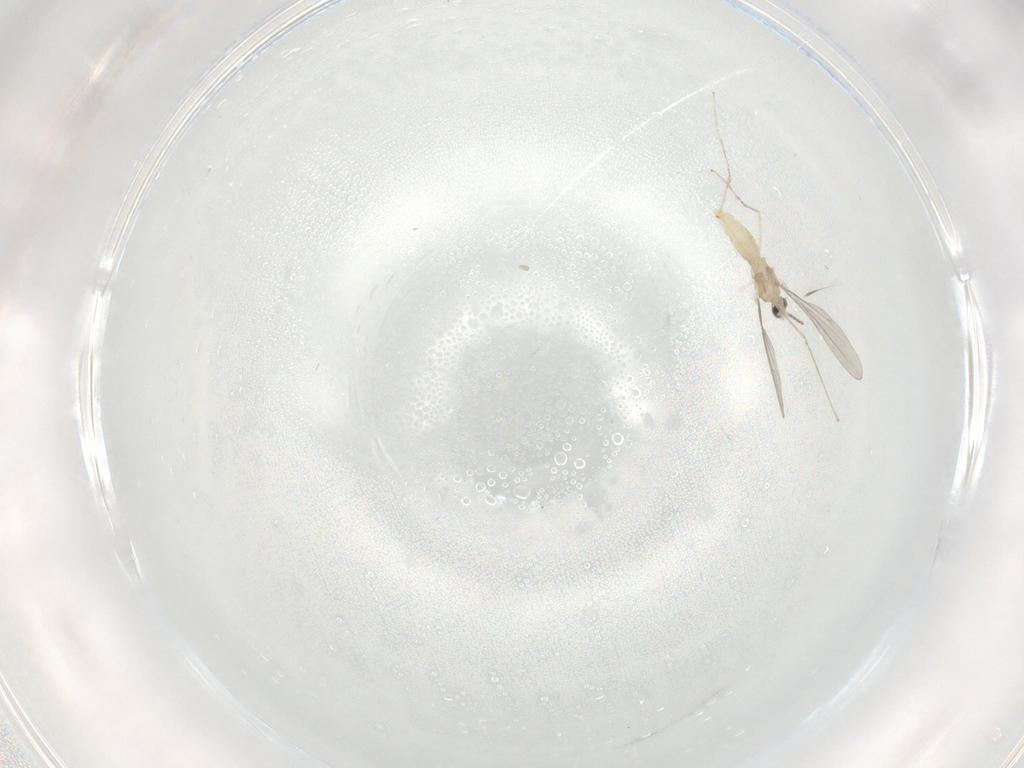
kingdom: Animalia
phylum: Arthropoda
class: Insecta
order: Diptera
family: Cecidomyiidae
